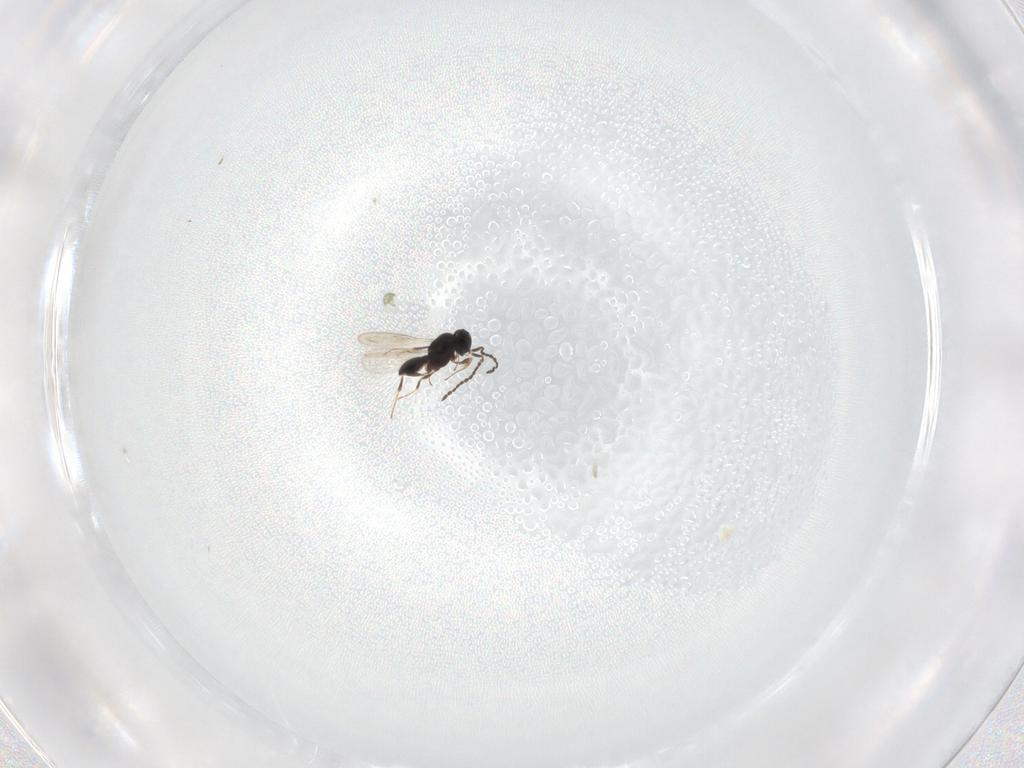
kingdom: Animalia
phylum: Arthropoda
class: Insecta
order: Hymenoptera
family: Scelionidae
